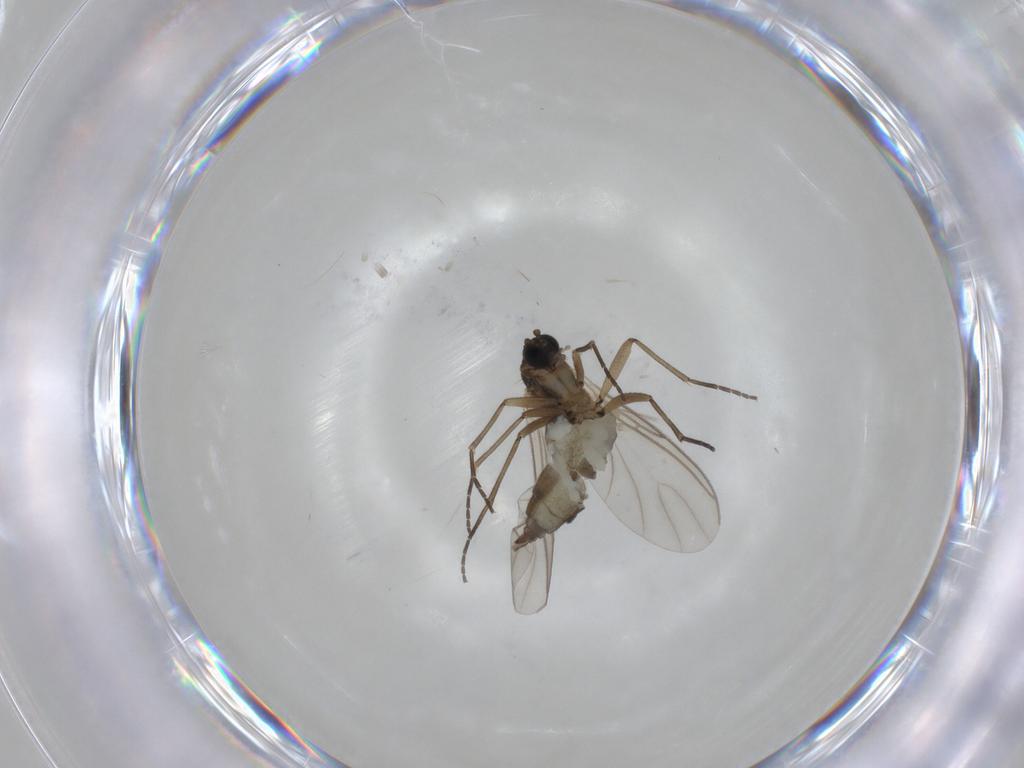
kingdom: Animalia
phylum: Arthropoda
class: Insecta
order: Diptera
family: Chironomidae
